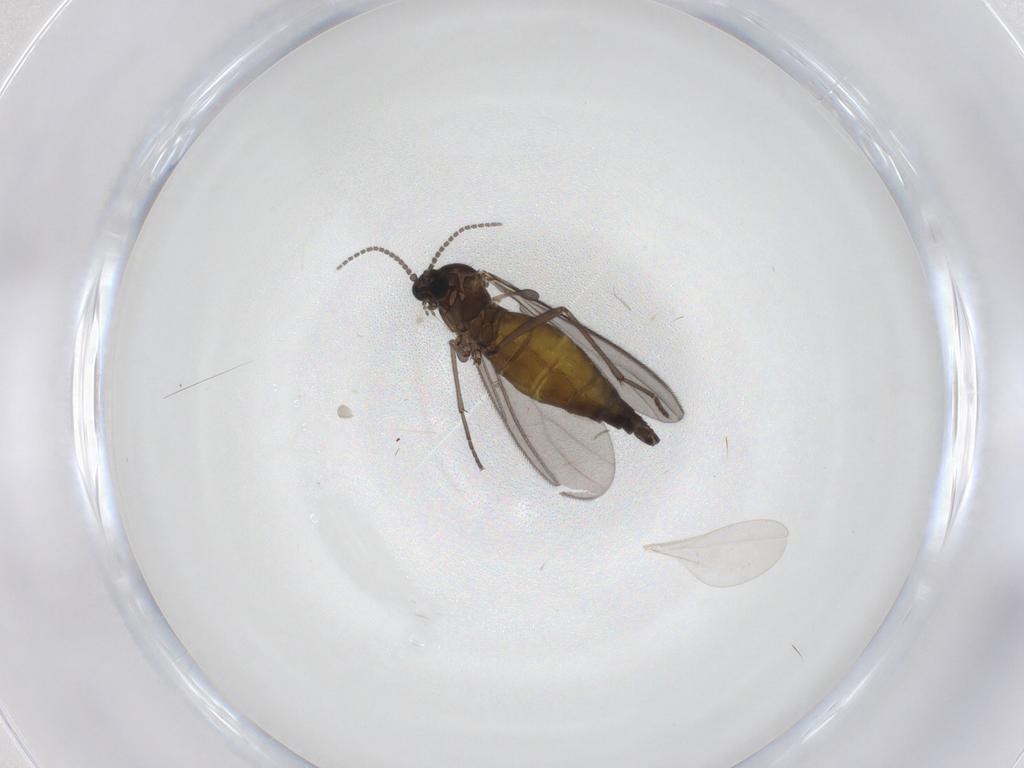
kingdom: Animalia
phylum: Arthropoda
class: Insecta
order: Diptera
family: Sciaridae
